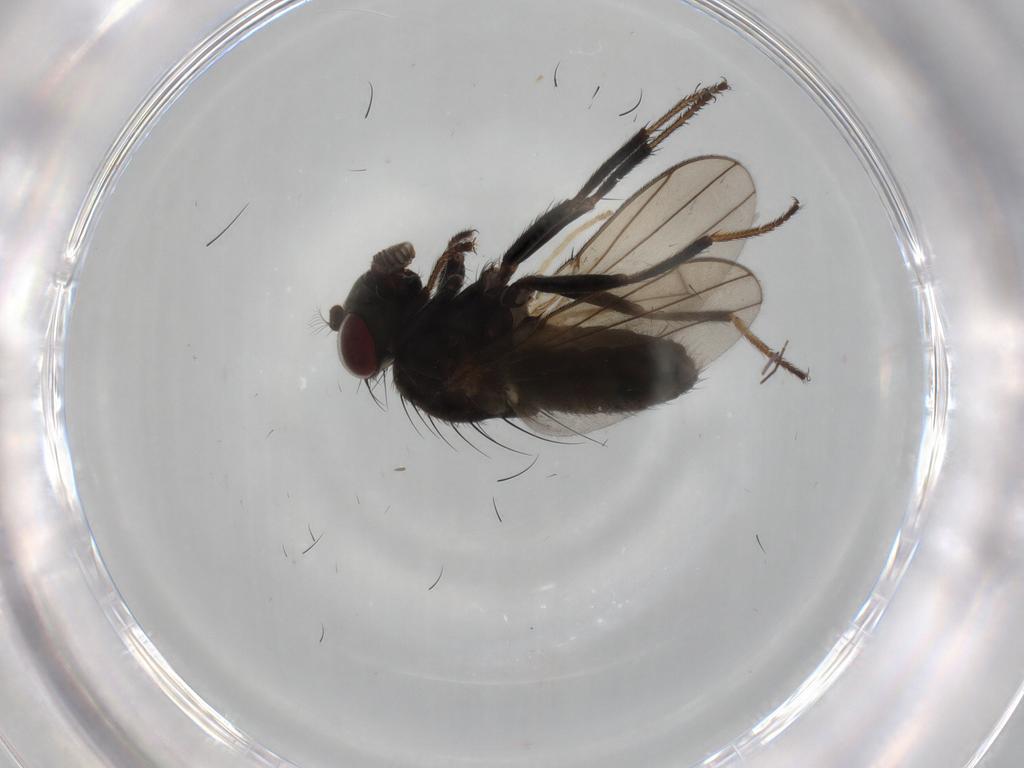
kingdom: Animalia
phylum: Arthropoda
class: Insecta
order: Diptera
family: Ephydridae
